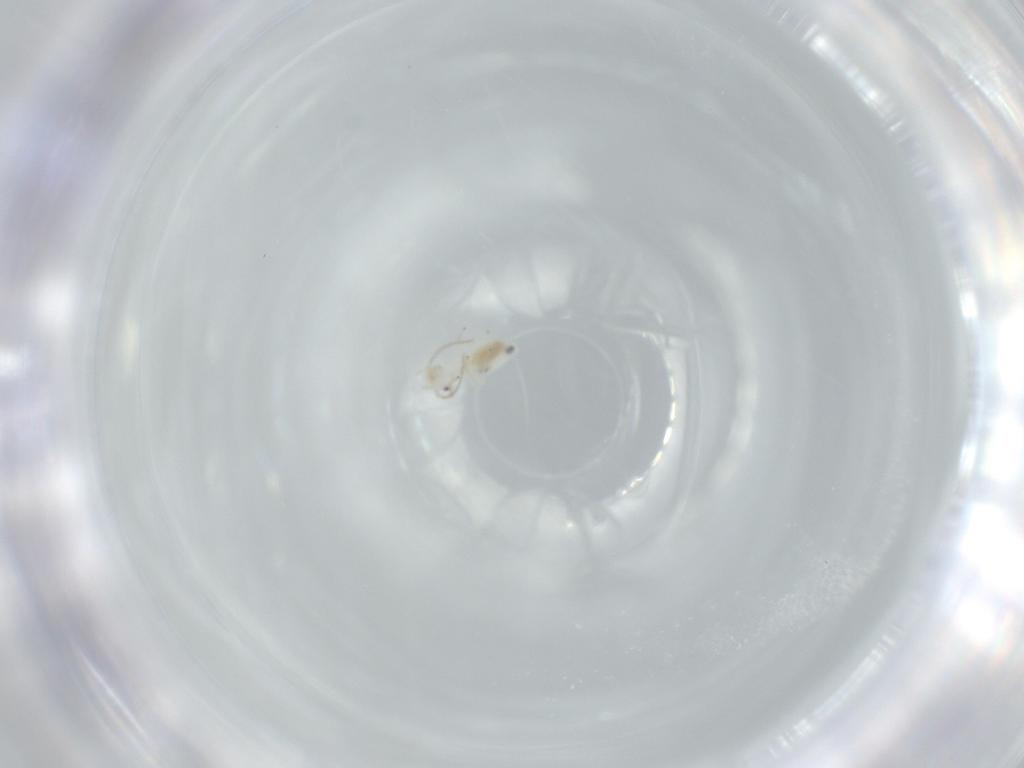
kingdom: Animalia
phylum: Arthropoda
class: Insecta
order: Psocodea
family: Caeciliusidae
